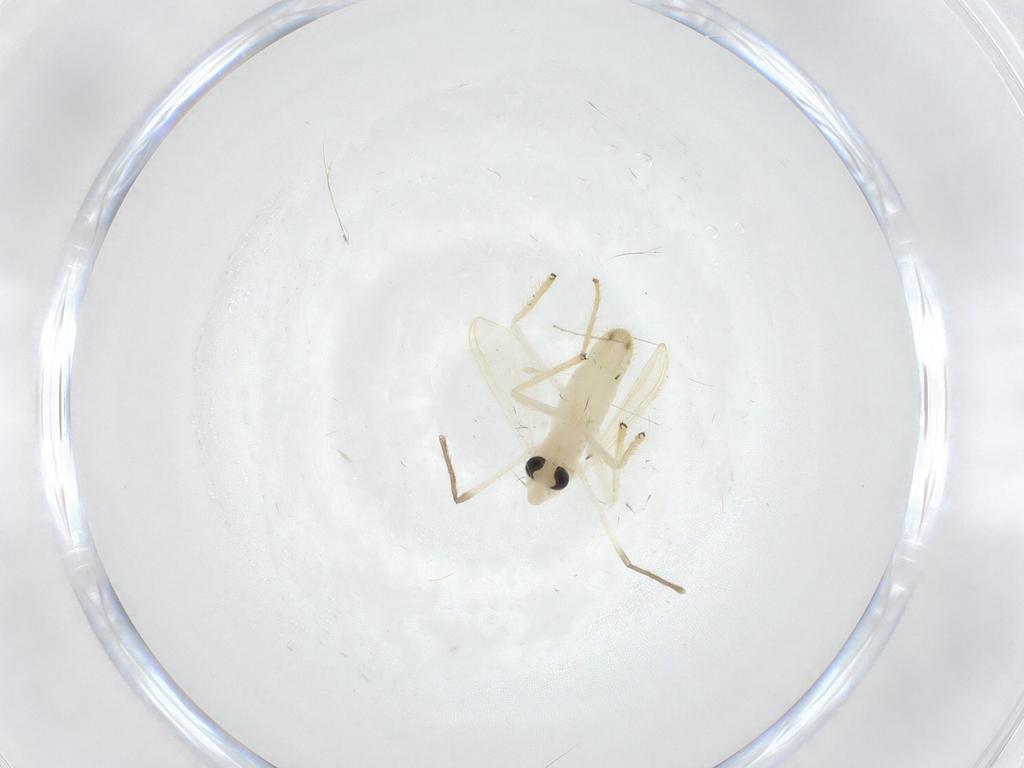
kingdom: Animalia
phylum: Arthropoda
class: Insecta
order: Diptera
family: Chironomidae
